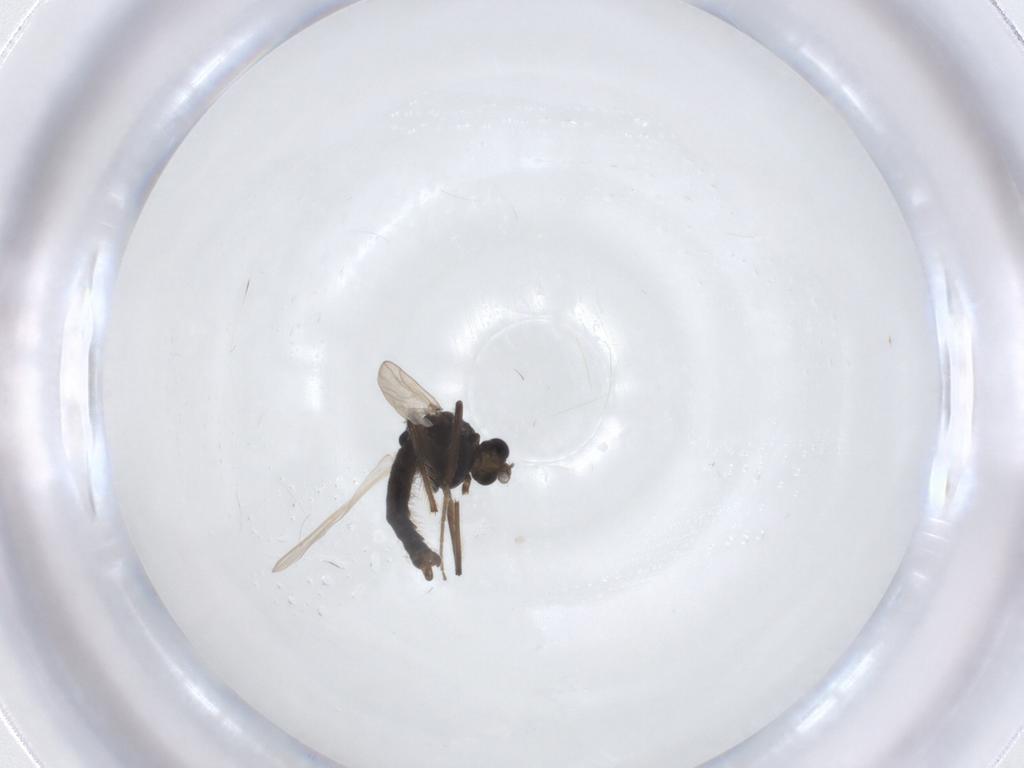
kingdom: Animalia
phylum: Arthropoda
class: Insecta
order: Diptera
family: Chironomidae
